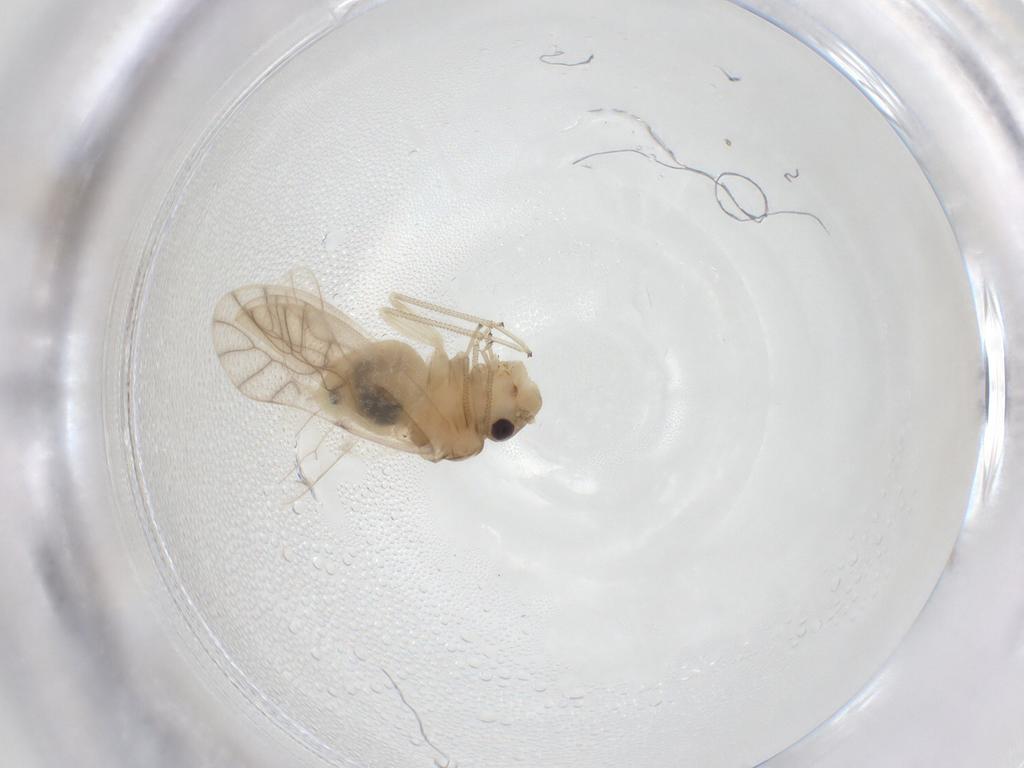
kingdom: Animalia
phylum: Arthropoda
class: Insecta
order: Psocodea
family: Caeciliusidae
